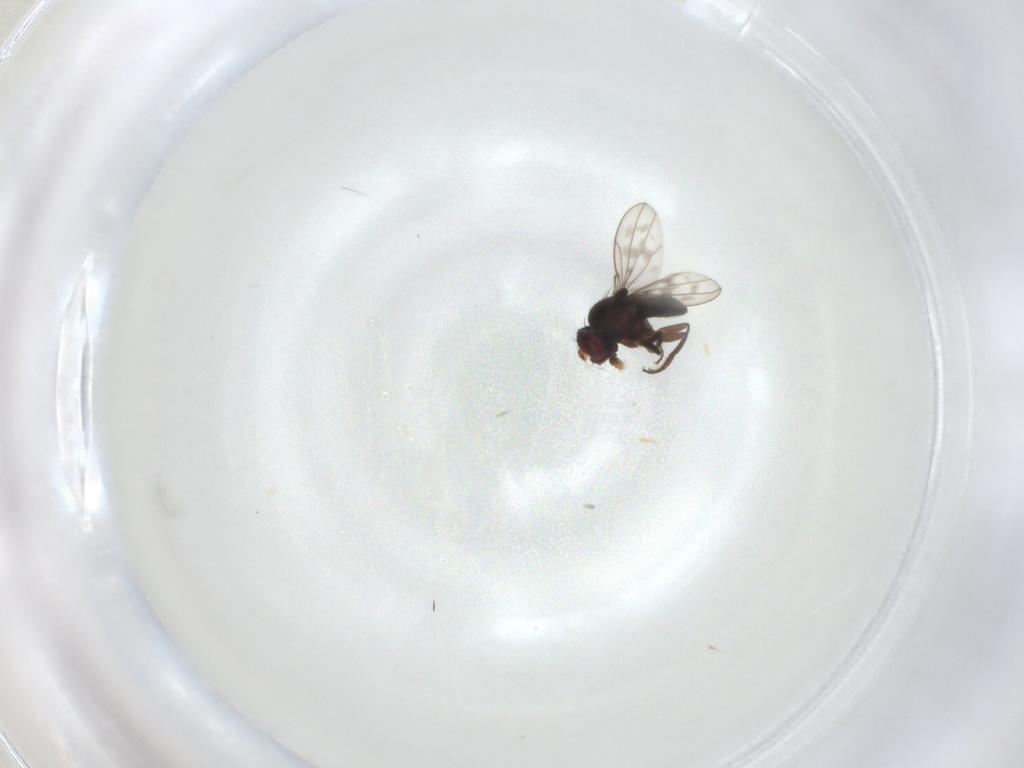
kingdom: Animalia
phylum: Arthropoda
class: Insecta
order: Diptera
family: Ephydridae
